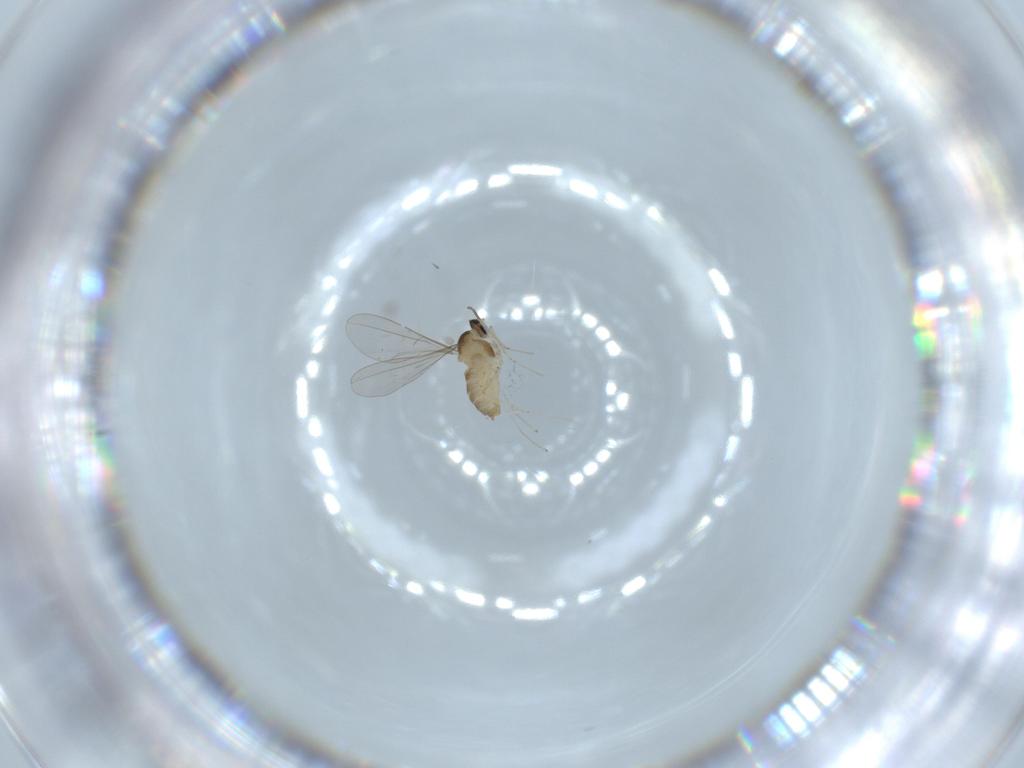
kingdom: Animalia
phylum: Arthropoda
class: Insecta
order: Diptera
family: Cecidomyiidae
